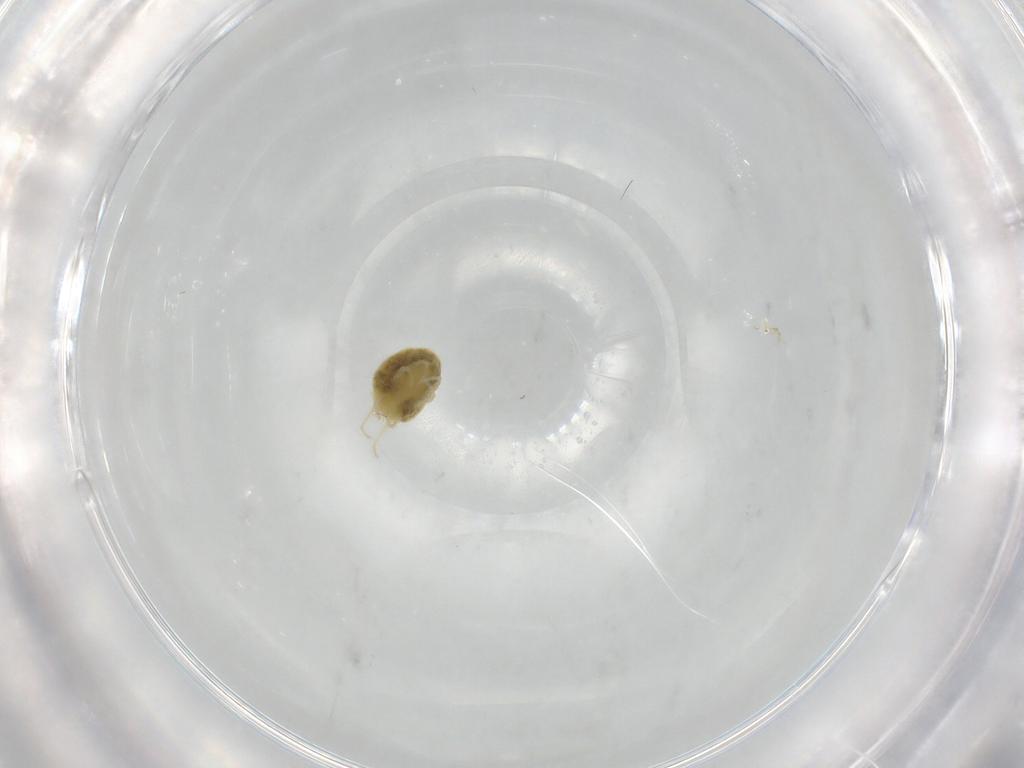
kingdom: Animalia
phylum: Arthropoda
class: Arachnida
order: Trombidiformes
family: Tetranychidae
